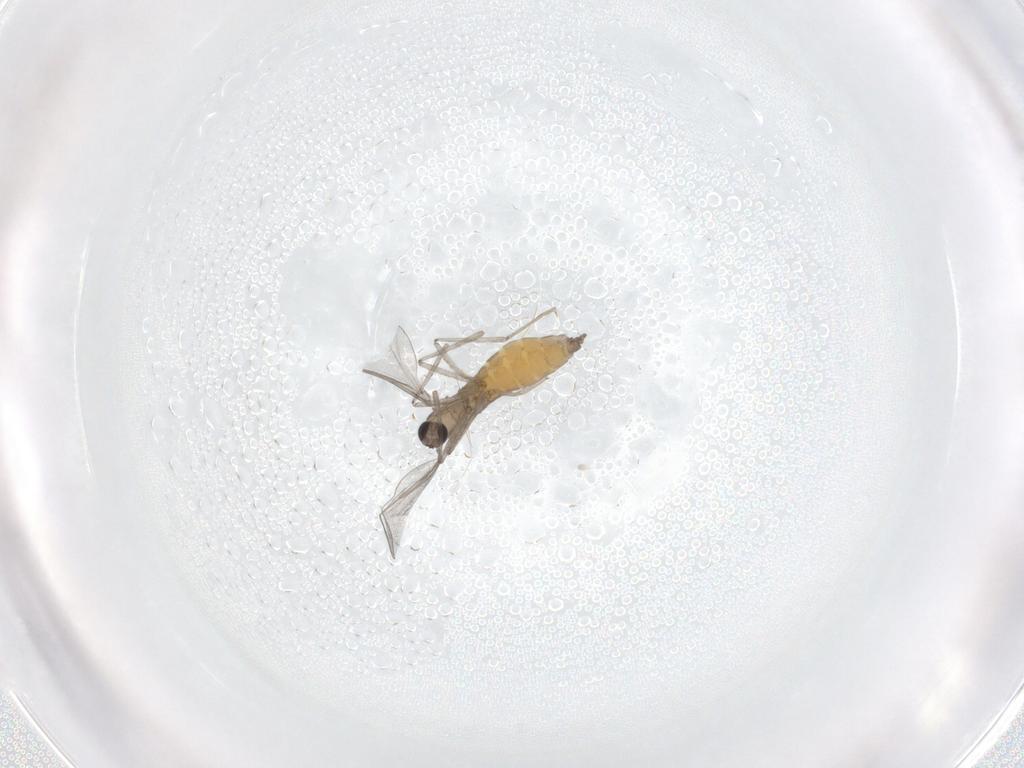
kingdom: Animalia
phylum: Arthropoda
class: Insecta
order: Diptera
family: Cecidomyiidae
